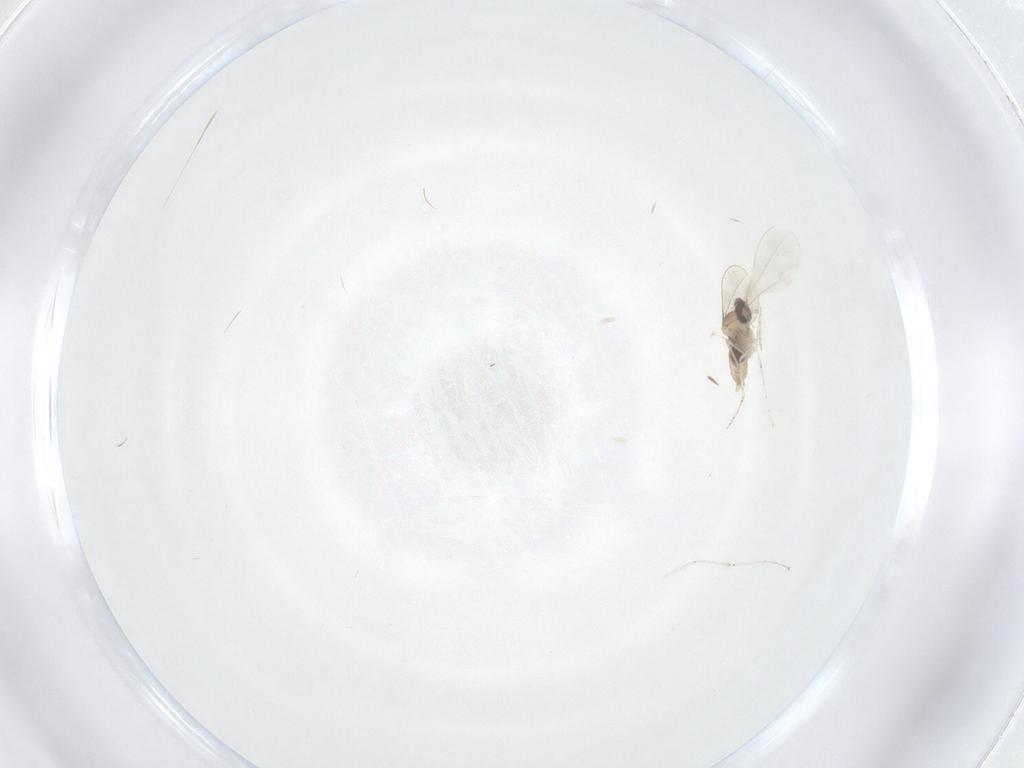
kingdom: Animalia
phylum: Arthropoda
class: Insecta
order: Diptera
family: Cecidomyiidae
